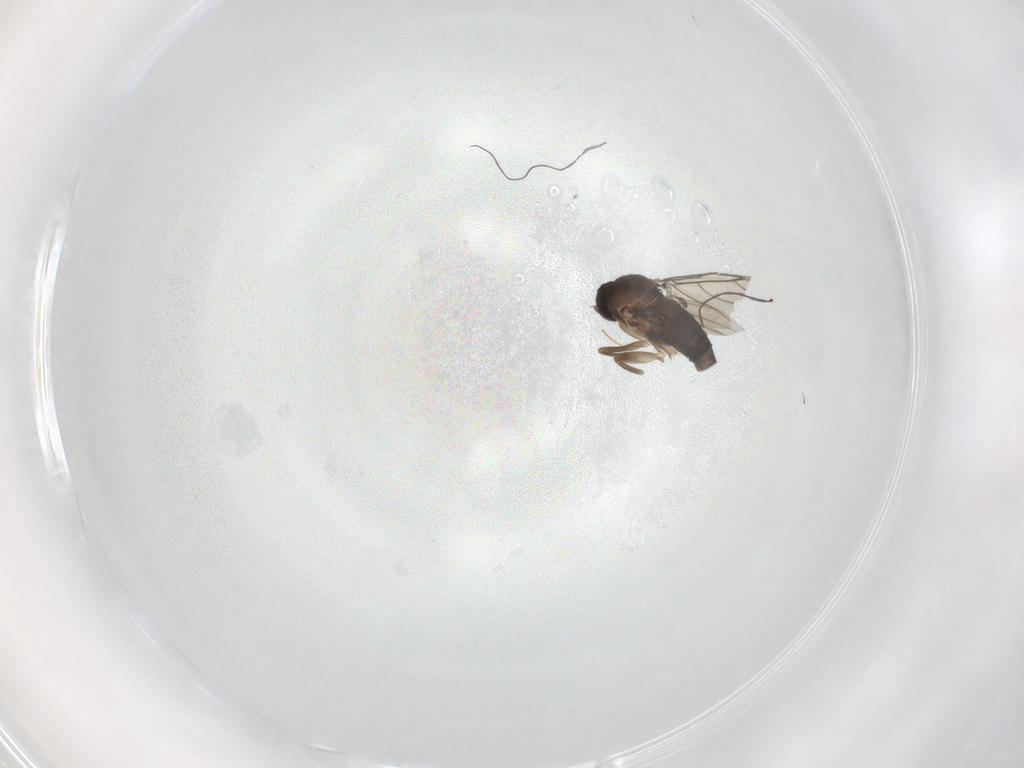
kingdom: Animalia
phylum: Arthropoda
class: Insecta
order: Diptera
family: Phoridae
